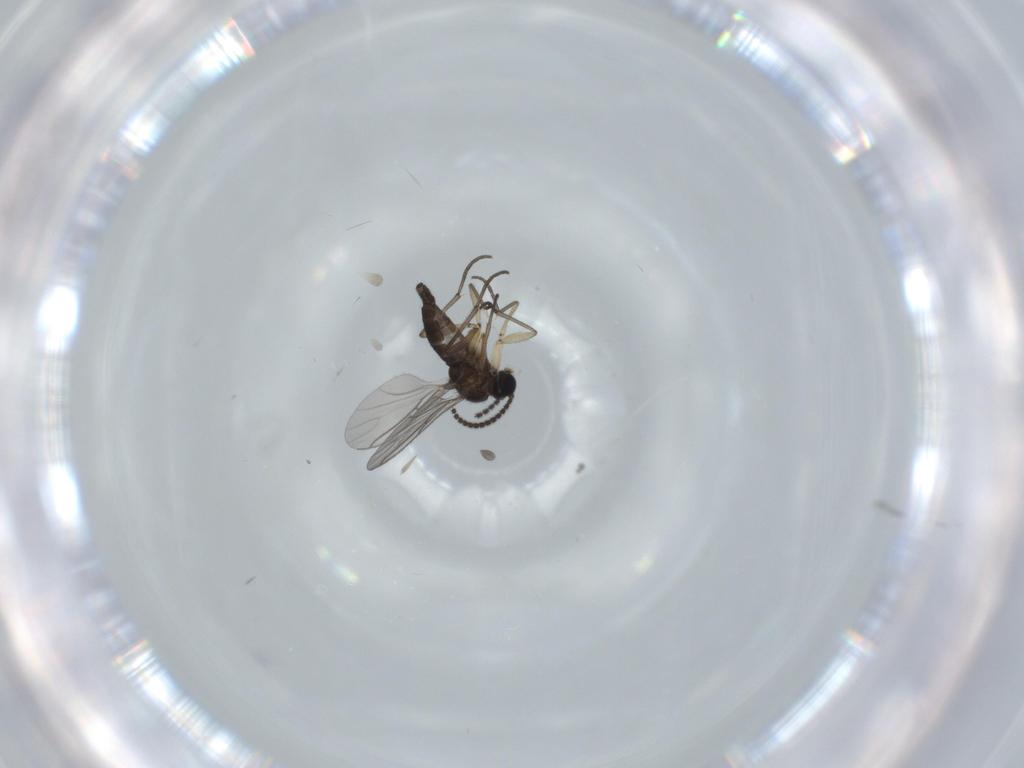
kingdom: Animalia
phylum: Arthropoda
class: Insecta
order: Diptera
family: Sciaridae
